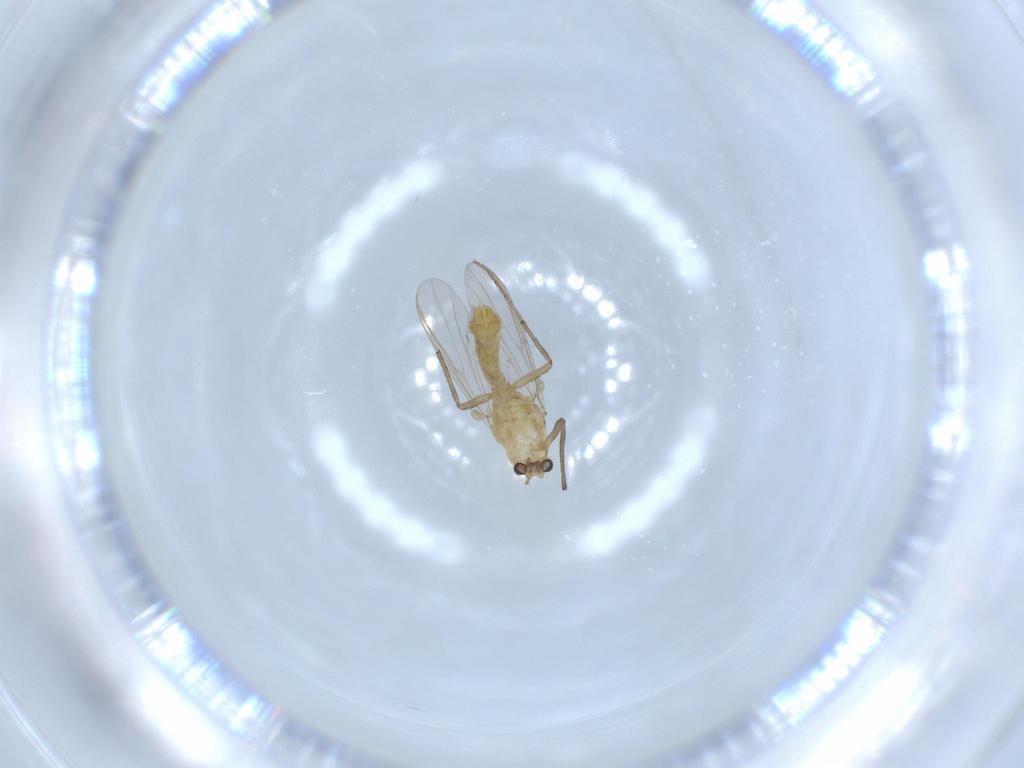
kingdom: Animalia
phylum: Arthropoda
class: Insecta
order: Diptera
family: Chironomidae
